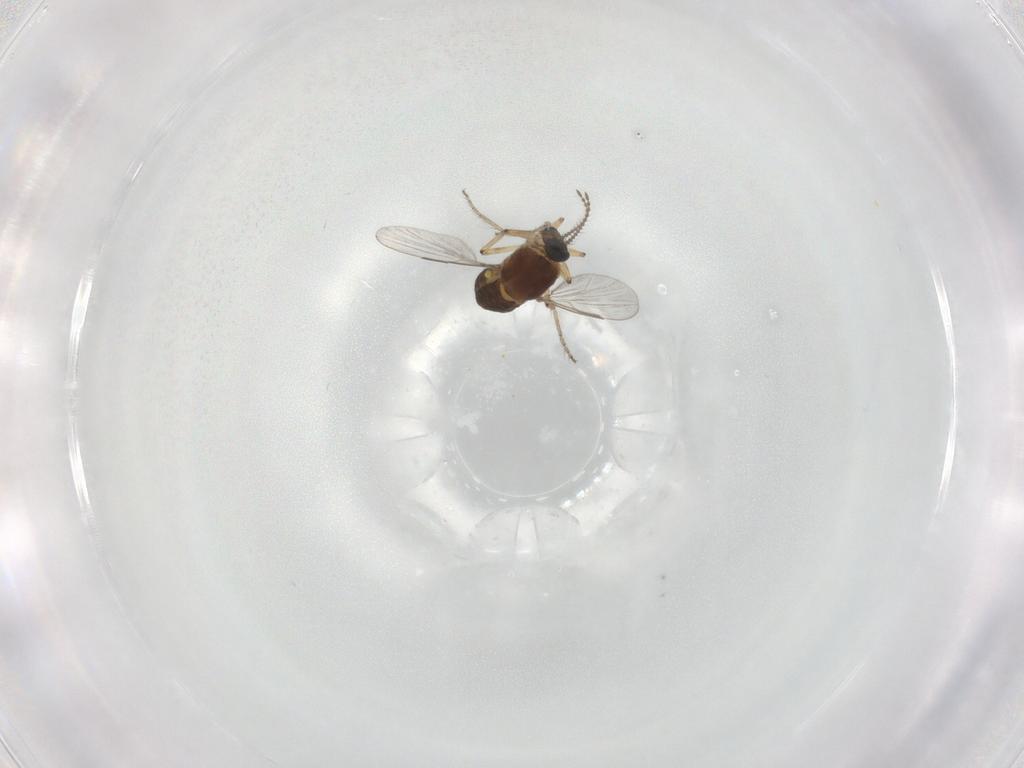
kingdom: Animalia
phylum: Arthropoda
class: Insecta
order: Diptera
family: Ceratopogonidae
